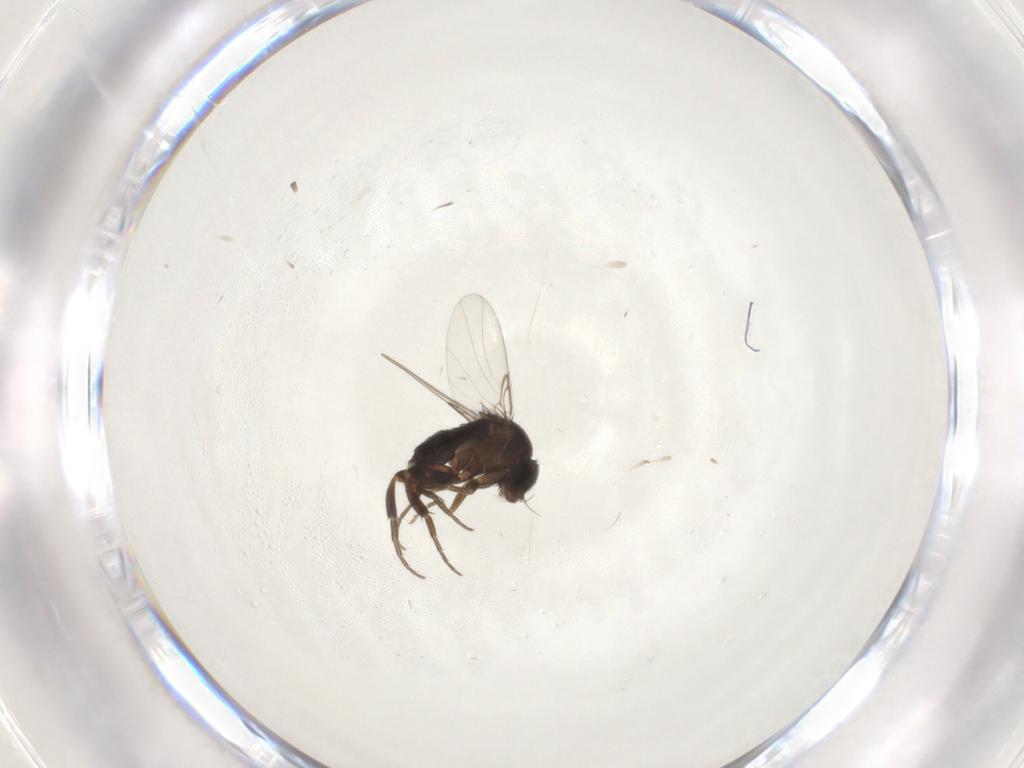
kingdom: Animalia
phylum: Arthropoda
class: Insecta
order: Diptera
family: Phoridae
